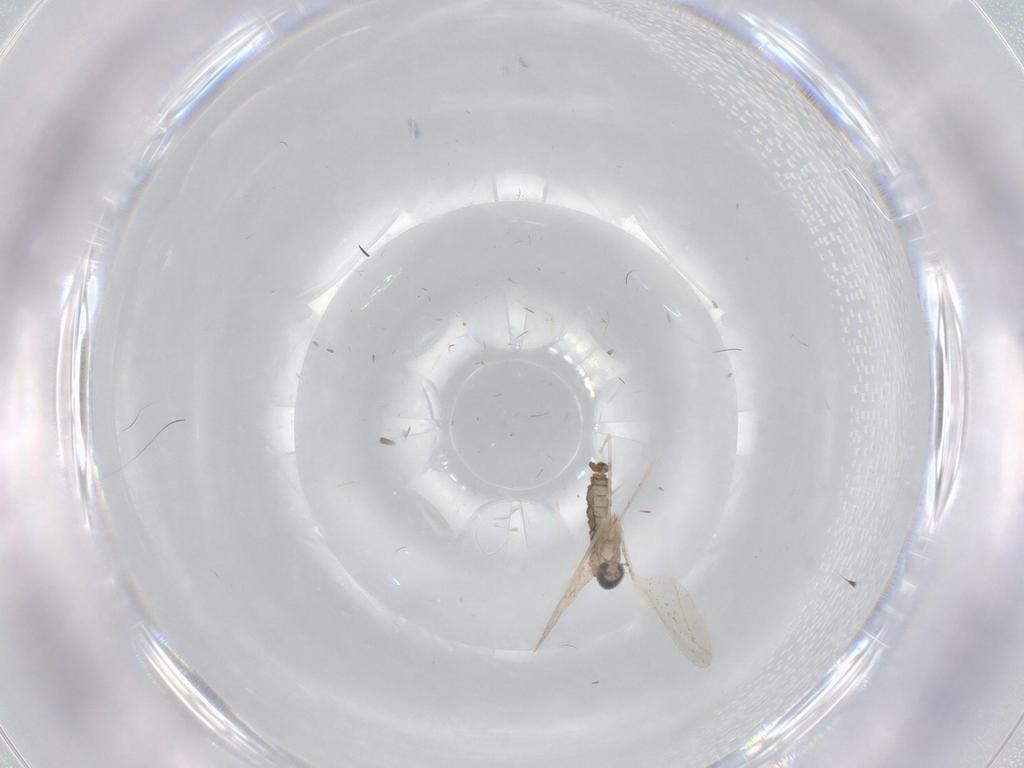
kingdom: Animalia
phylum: Arthropoda
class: Insecta
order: Diptera
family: Cecidomyiidae
